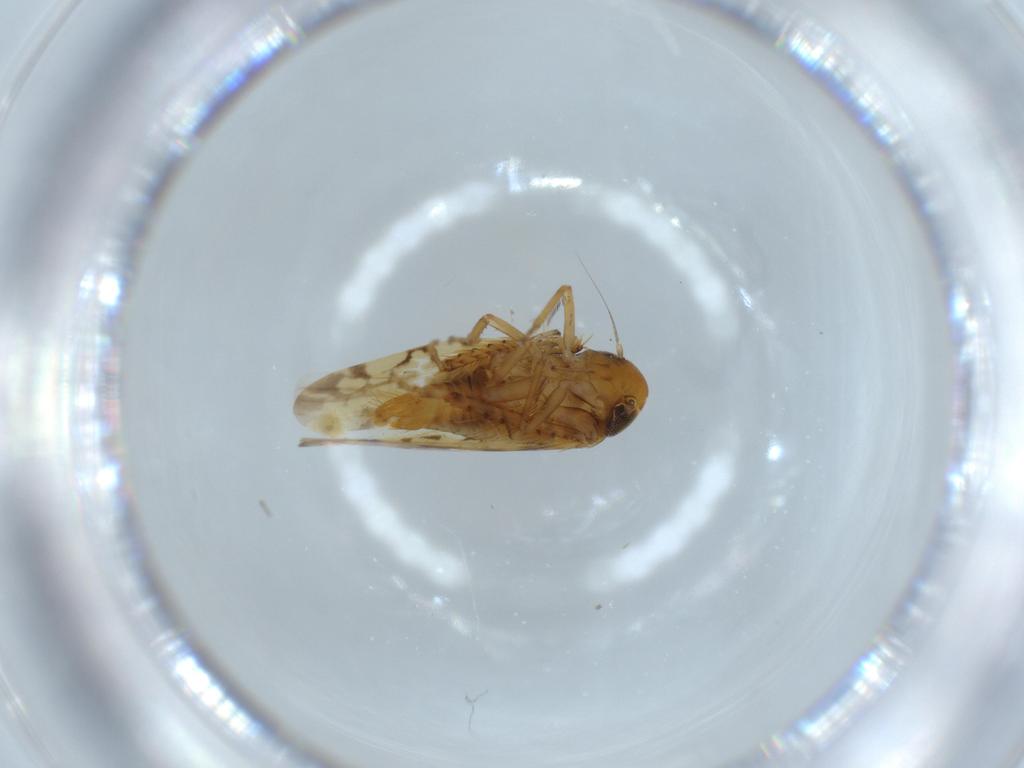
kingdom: Animalia
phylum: Arthropoda
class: Insecta
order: Hemiptera
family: Cicadellidae
